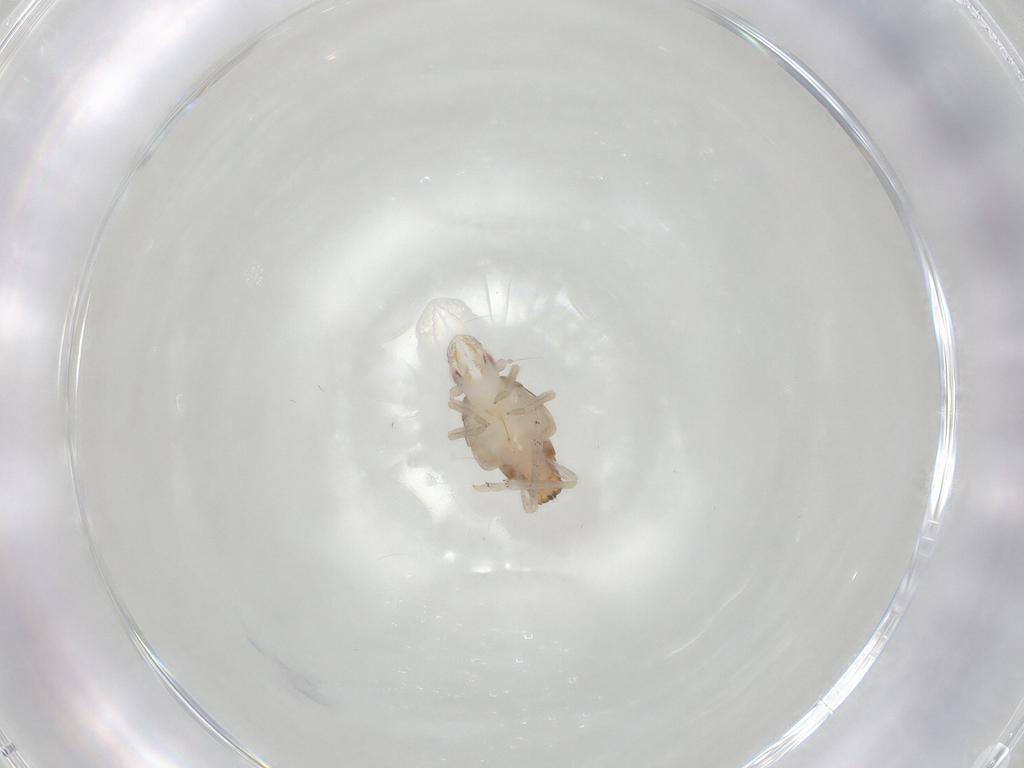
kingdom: Animalia
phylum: Arthropoda
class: Insecta
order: Hemiptera
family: Tropiduchidae
